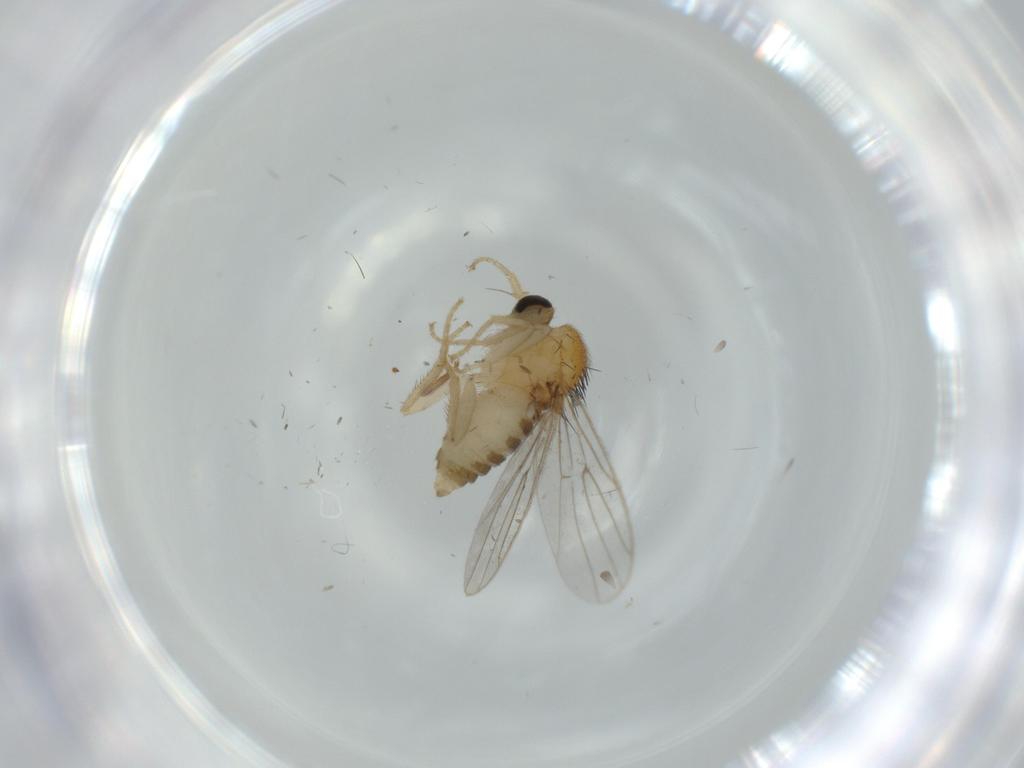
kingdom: Animalia
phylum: Arthropoda
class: Insecta
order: Diptera
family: Hybotidae
